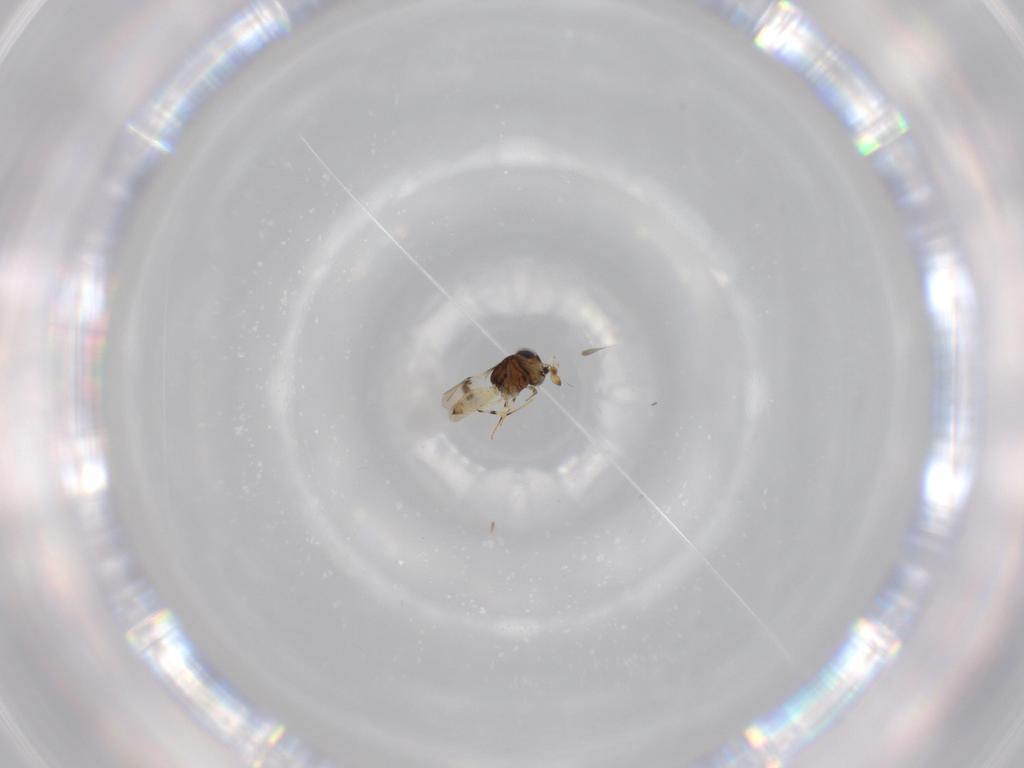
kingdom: Animalia
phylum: Arthropoda
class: Insecta
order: Hymenoptera
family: Scelionidae
